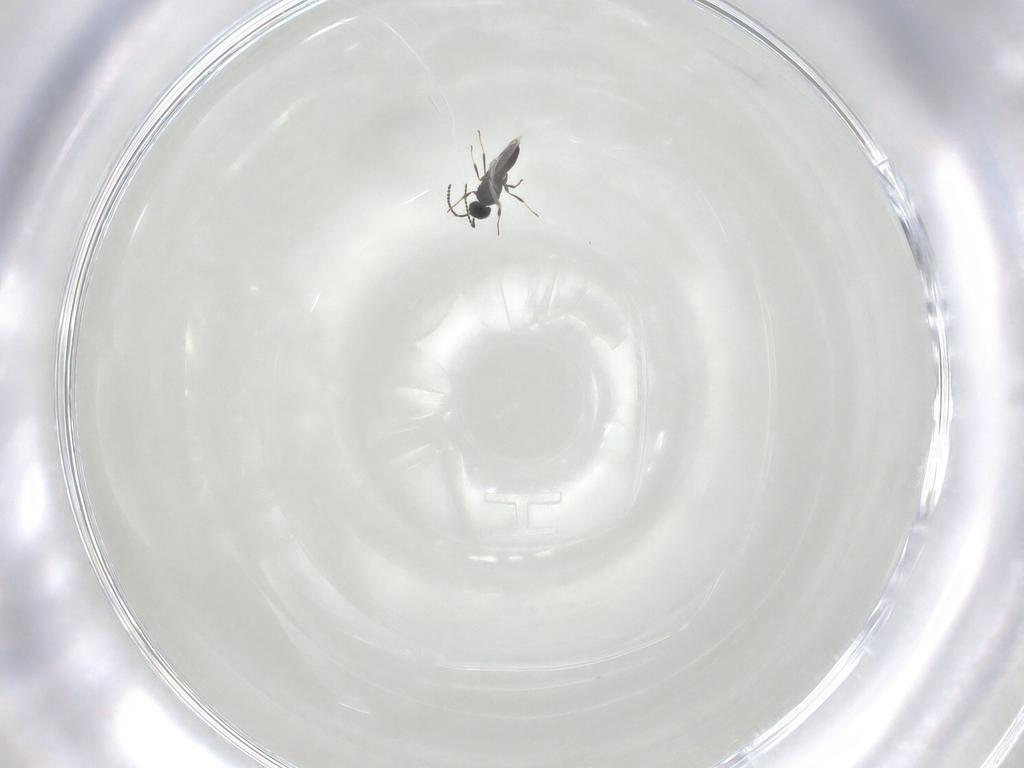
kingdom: Animalia
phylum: Arthropoda
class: Insecta
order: Hymenoptera
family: Scelionidae
